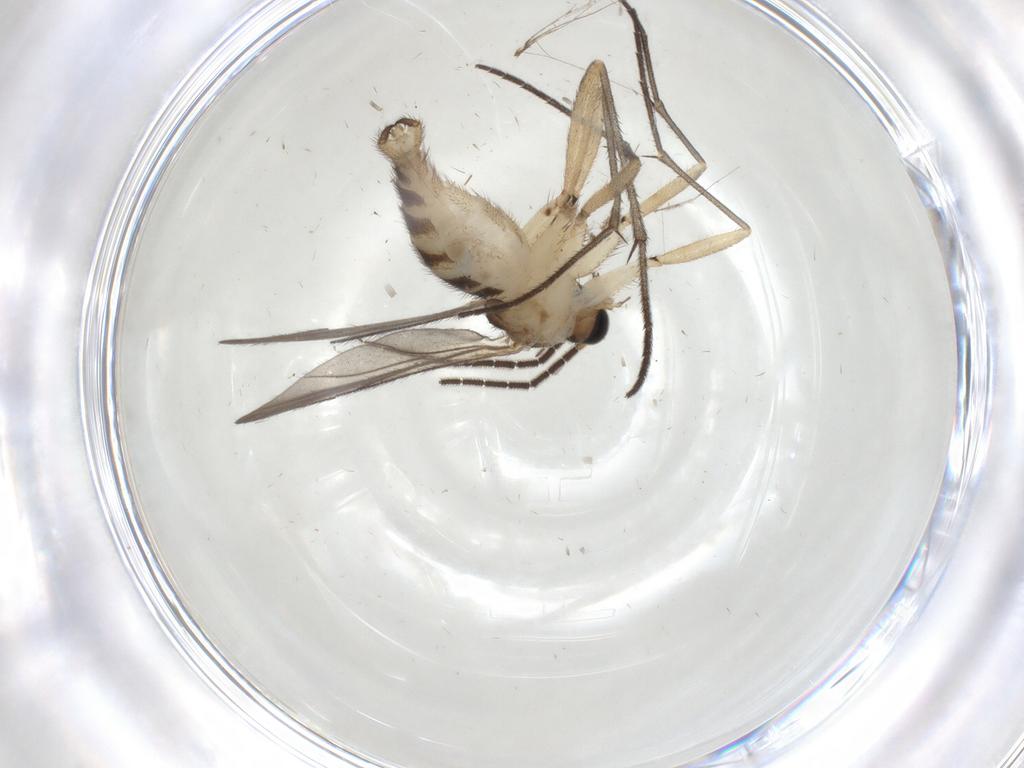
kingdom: Animalia
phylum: Arthropoda
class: Insecta
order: Diptera
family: Sciaridae
